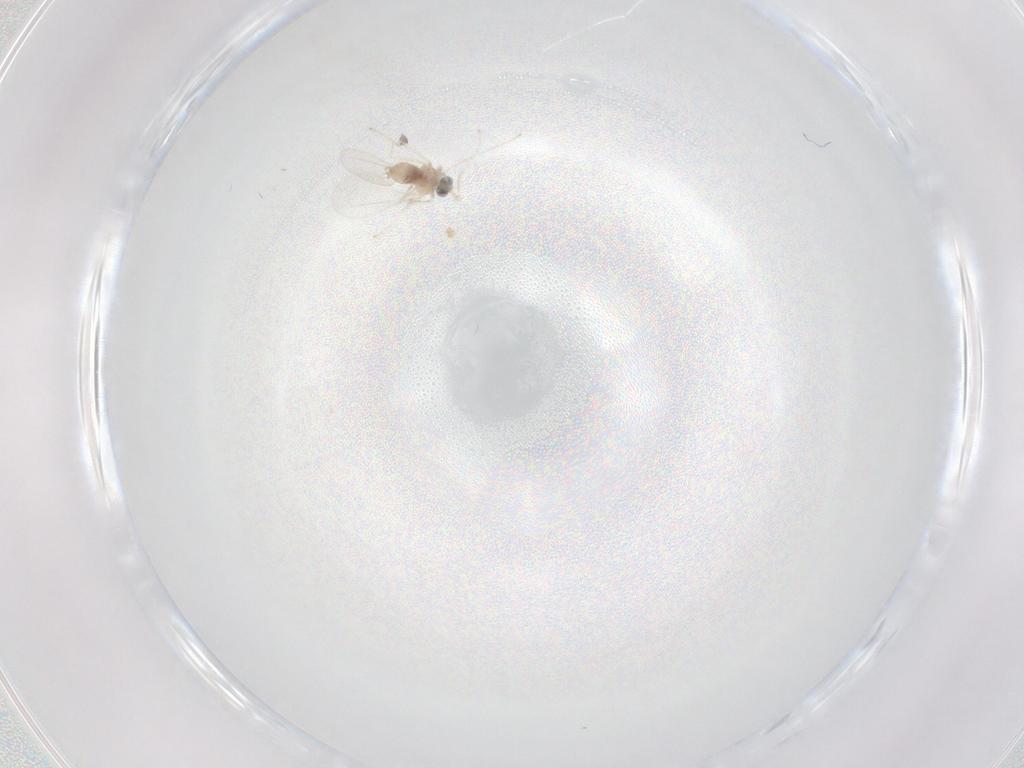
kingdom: Animalia
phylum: Arthropoda
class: Insecta
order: Diptera
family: Cecidomyiidae
